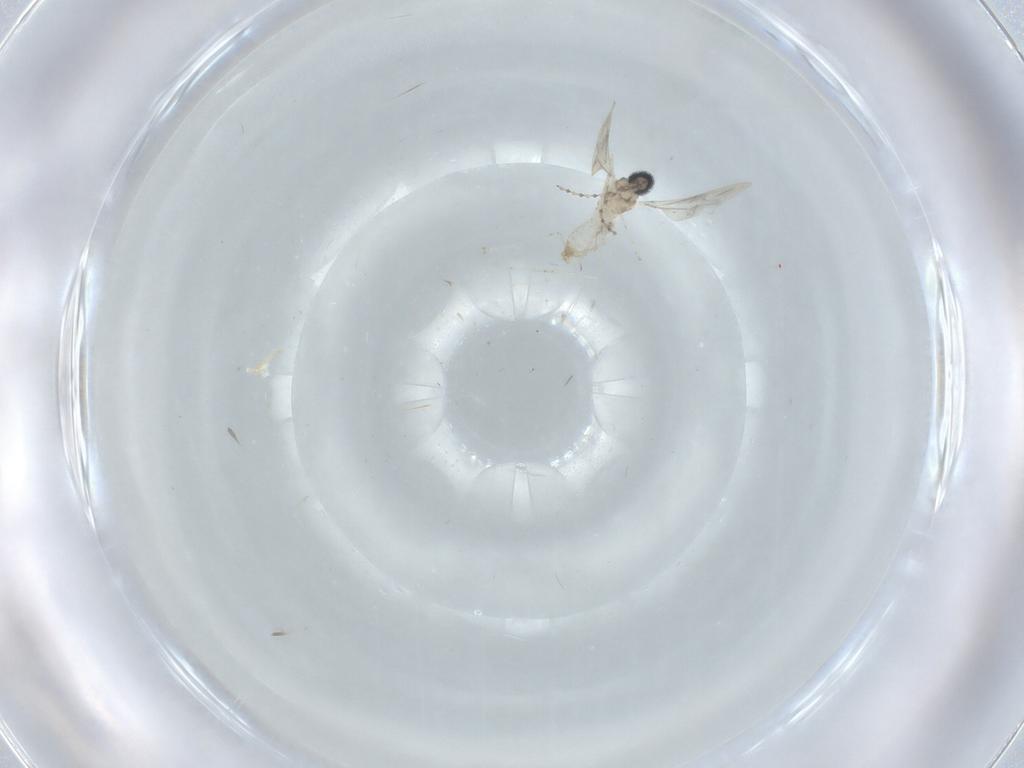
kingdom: Animalia
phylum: Arthropoda
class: Insecta
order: Diptera
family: Cecidomyiidae
